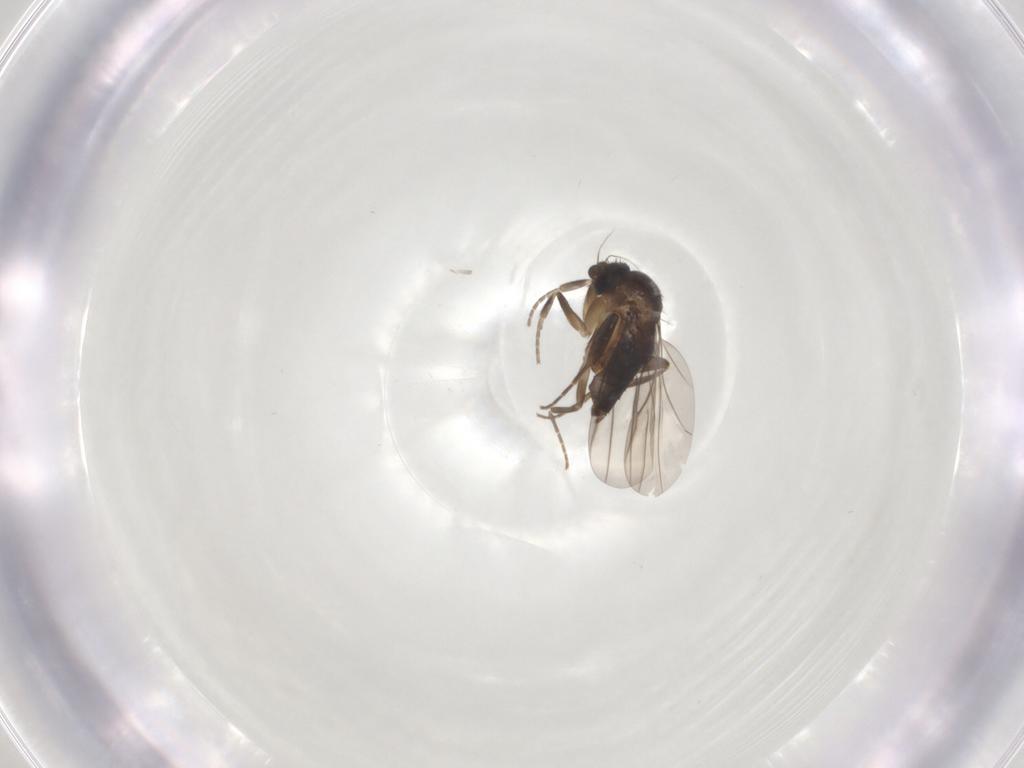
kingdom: Animalia
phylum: Arthropoda
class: Insecta
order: Diptera
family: Phoridae
